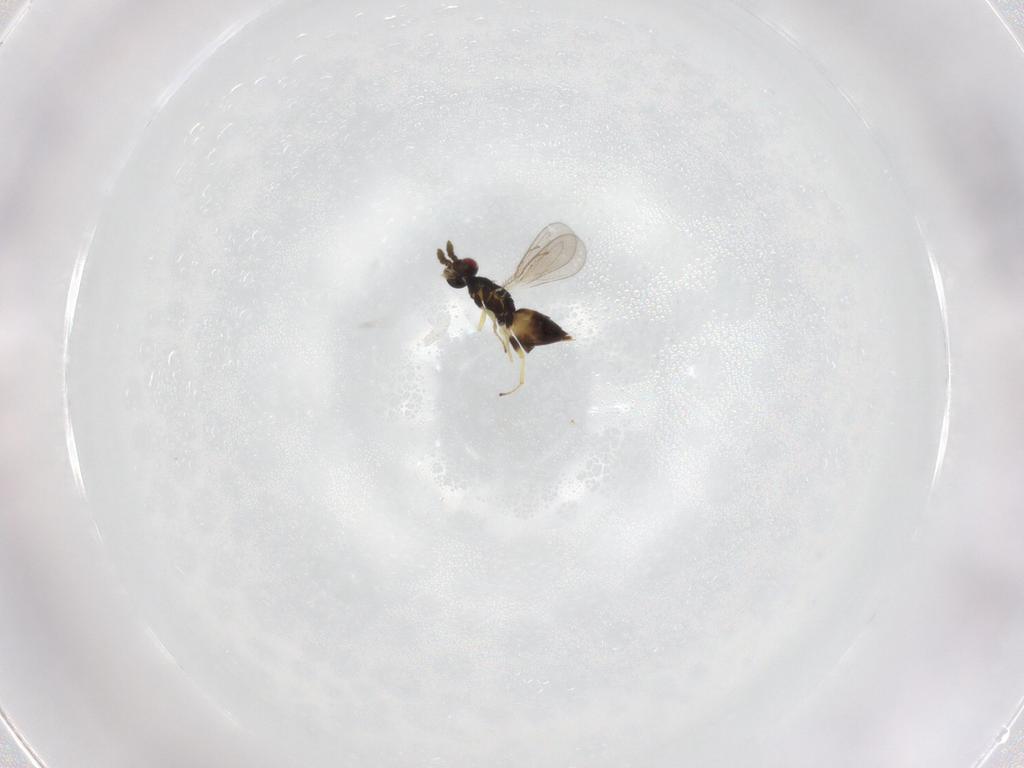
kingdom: Animalia
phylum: Arthropoda
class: Insecta
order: Hymenoptera
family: Eulophidae
